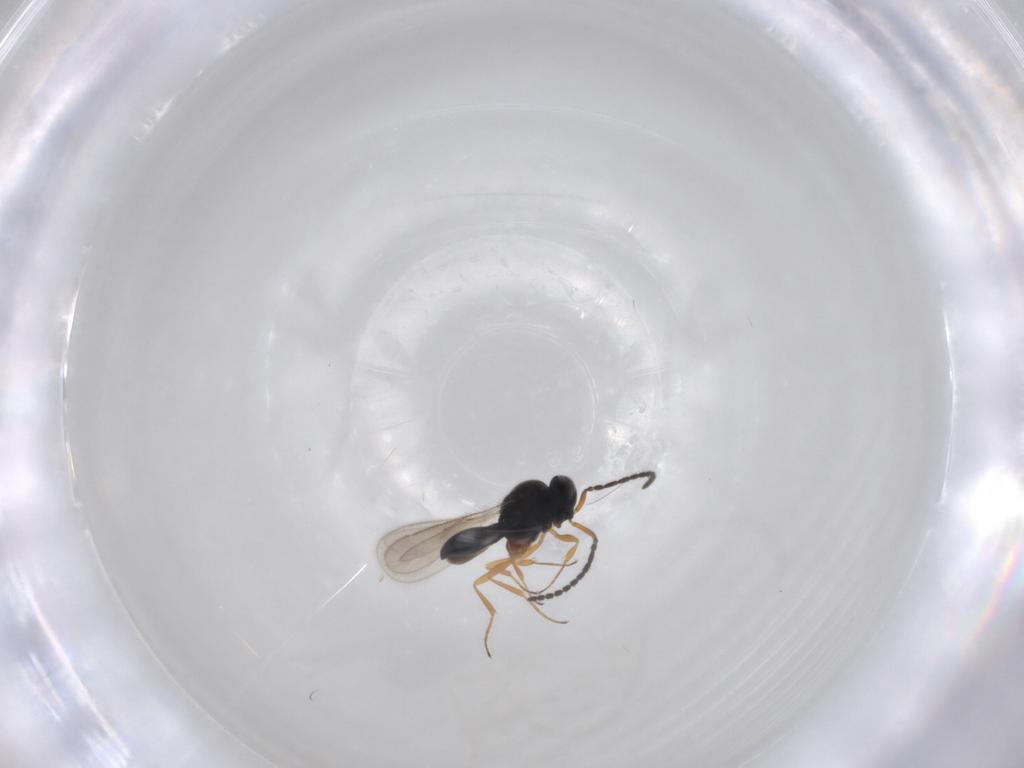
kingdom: Animalia
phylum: Arthropoda
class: Insecta
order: Hymenoptera
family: Scelionidae
